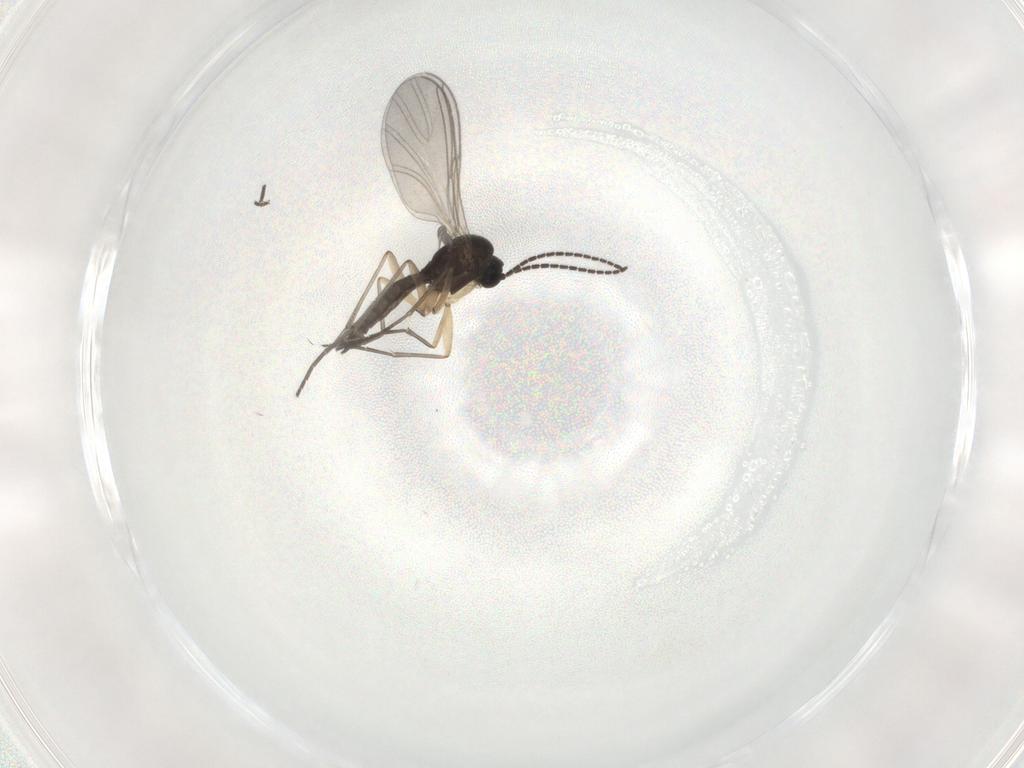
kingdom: Animalia
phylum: Arthropoda
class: Insecta
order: Diptera
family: Sciaridae
